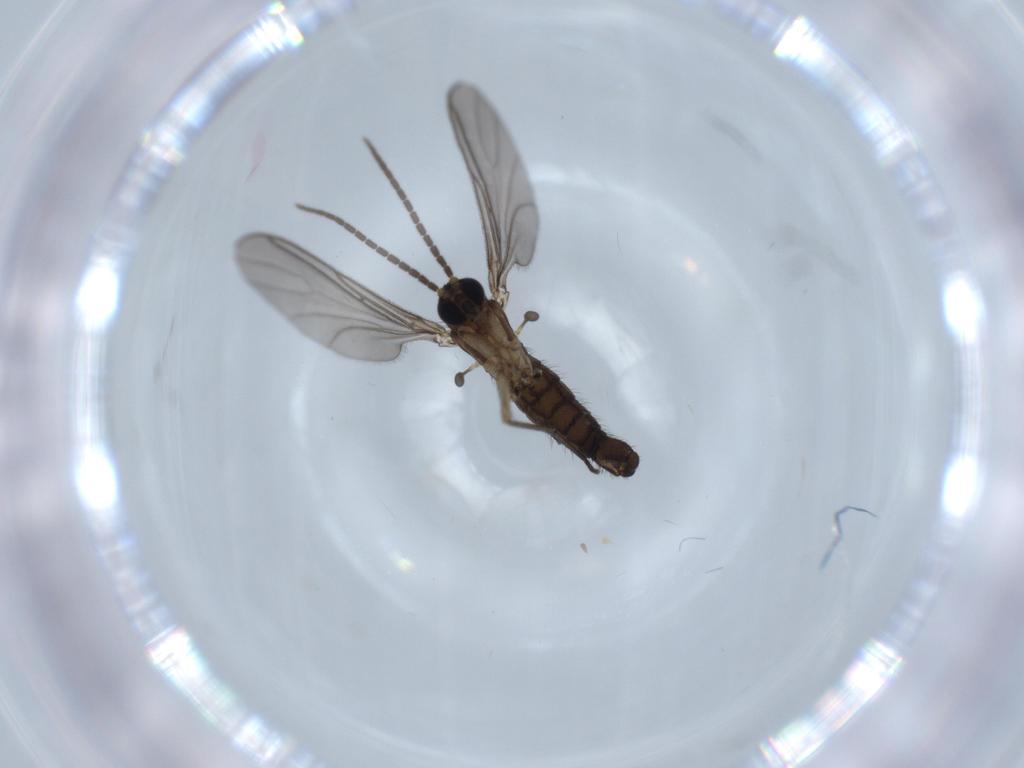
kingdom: Animalia
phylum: Arthropoda
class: Insecta
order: Diptera
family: Sciaridae
